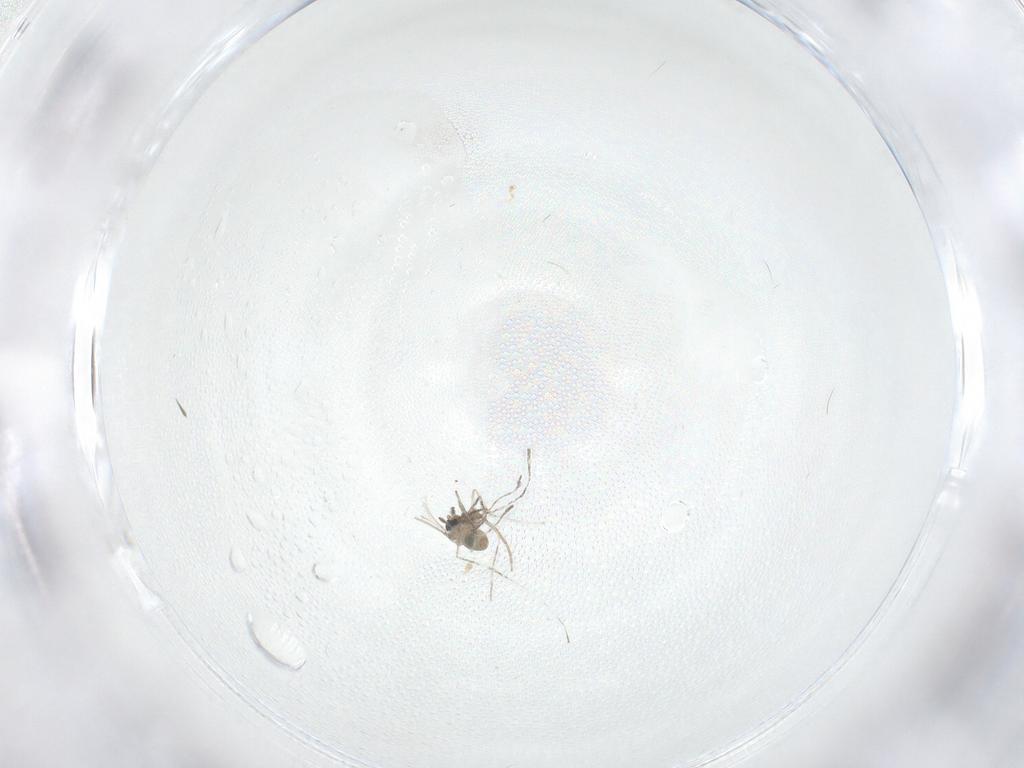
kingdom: Animalia
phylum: Arthropoda
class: Insecta
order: Diptera
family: Cecidomyiidae
